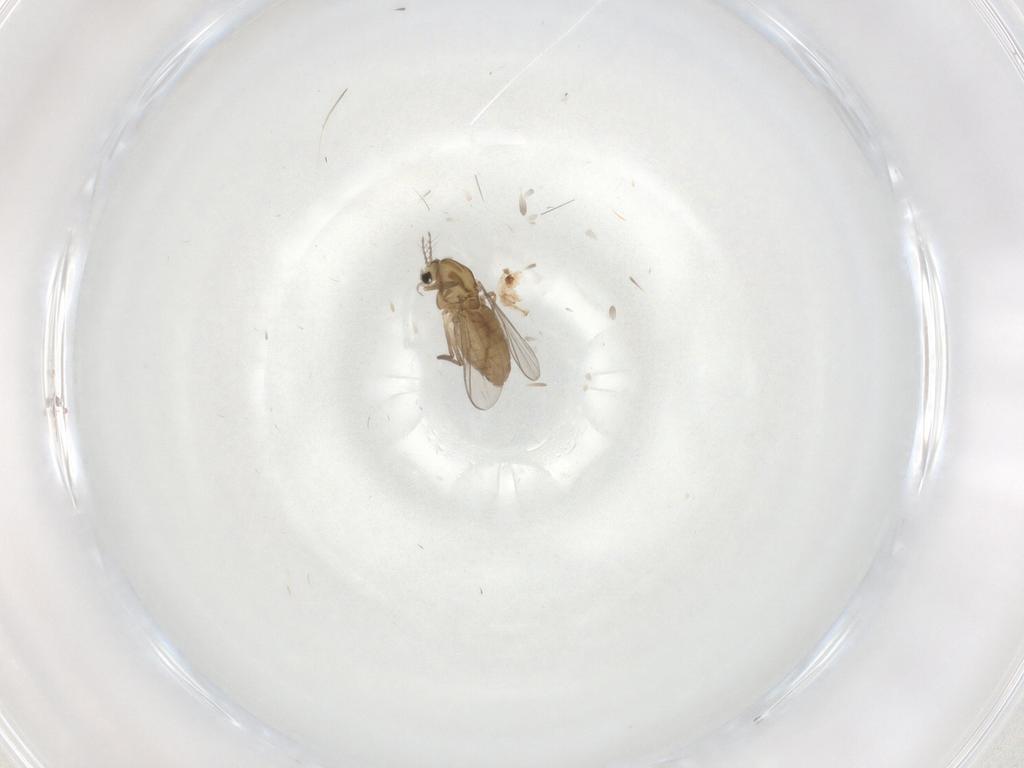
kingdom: Animalia
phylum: Arthropoda
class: Insecta
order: Diptera
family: Chironomidae
